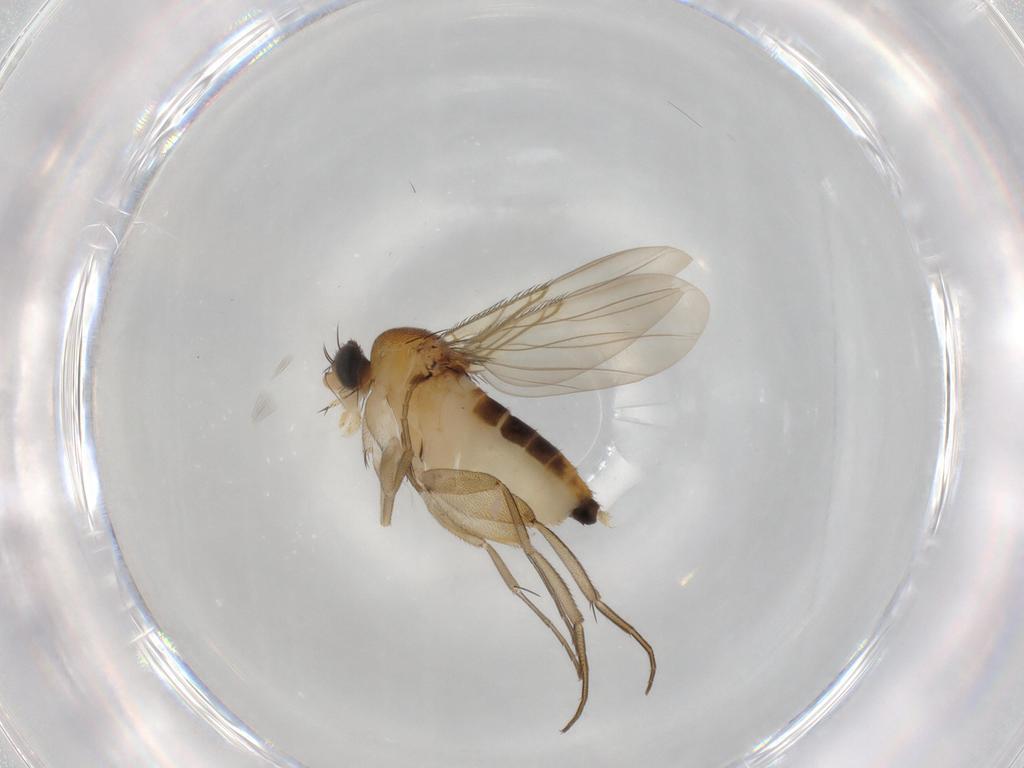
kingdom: Animalia
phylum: Arthropoda
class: Insecta
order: Diptera
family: Phoridae
